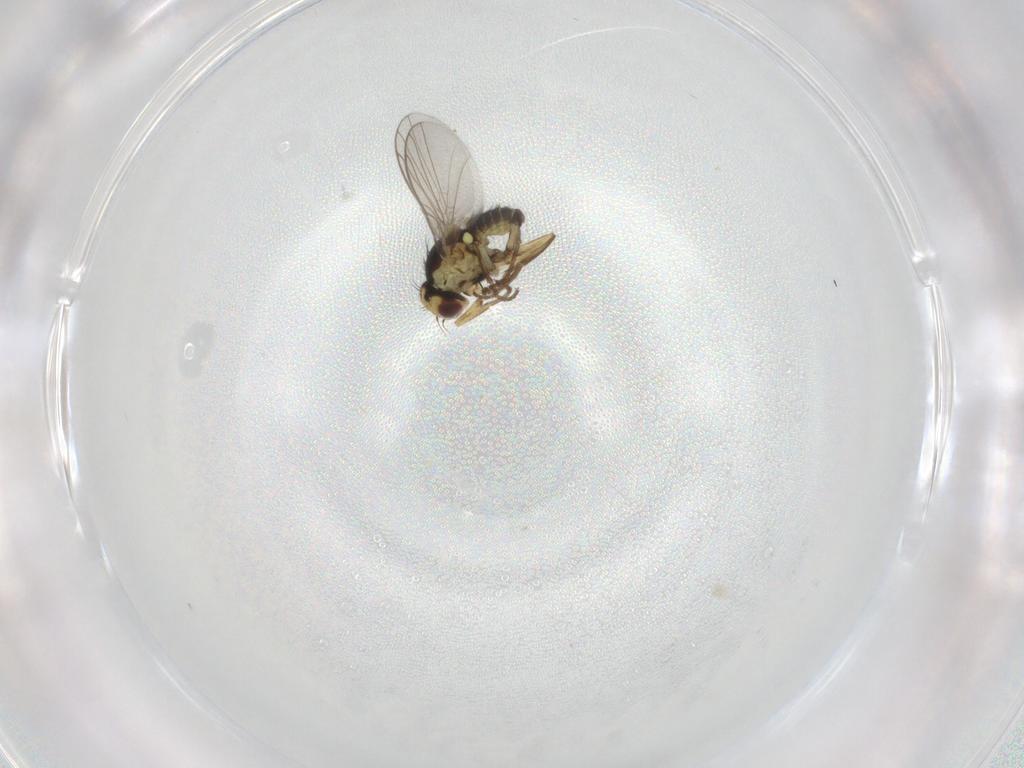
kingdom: Animalia
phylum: Arthropoda
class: Insecta
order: Diptera
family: Agromyzidae
